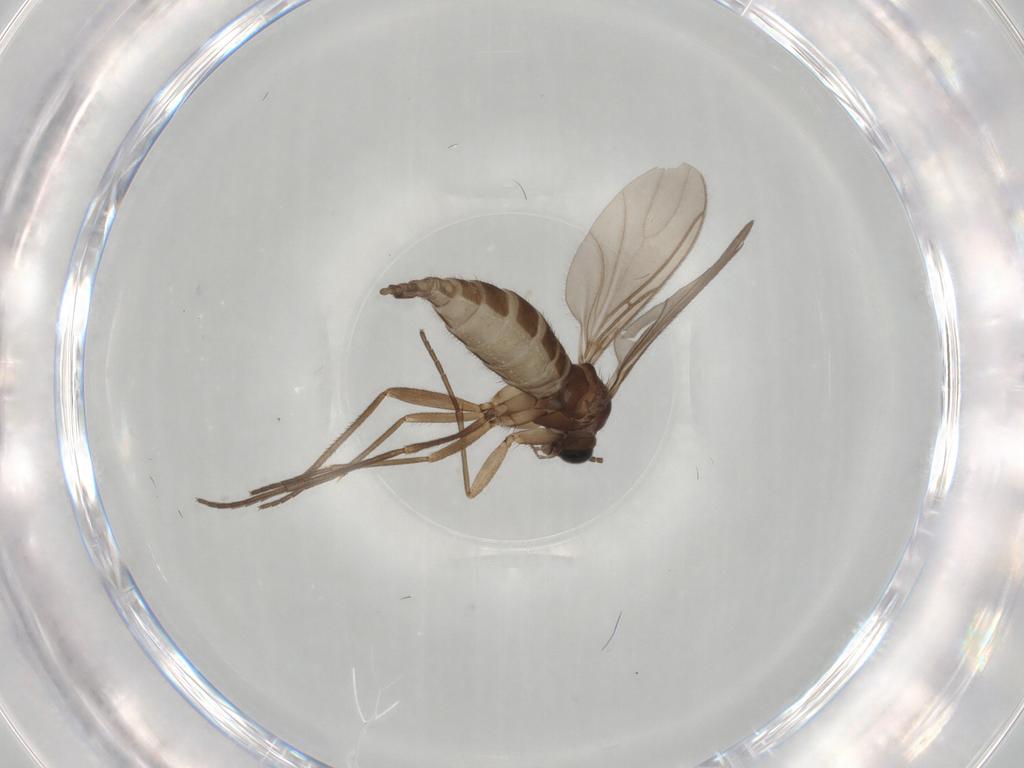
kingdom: Animalia
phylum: Arthropoda
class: Insecta
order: Diptera
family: Sciaridae
